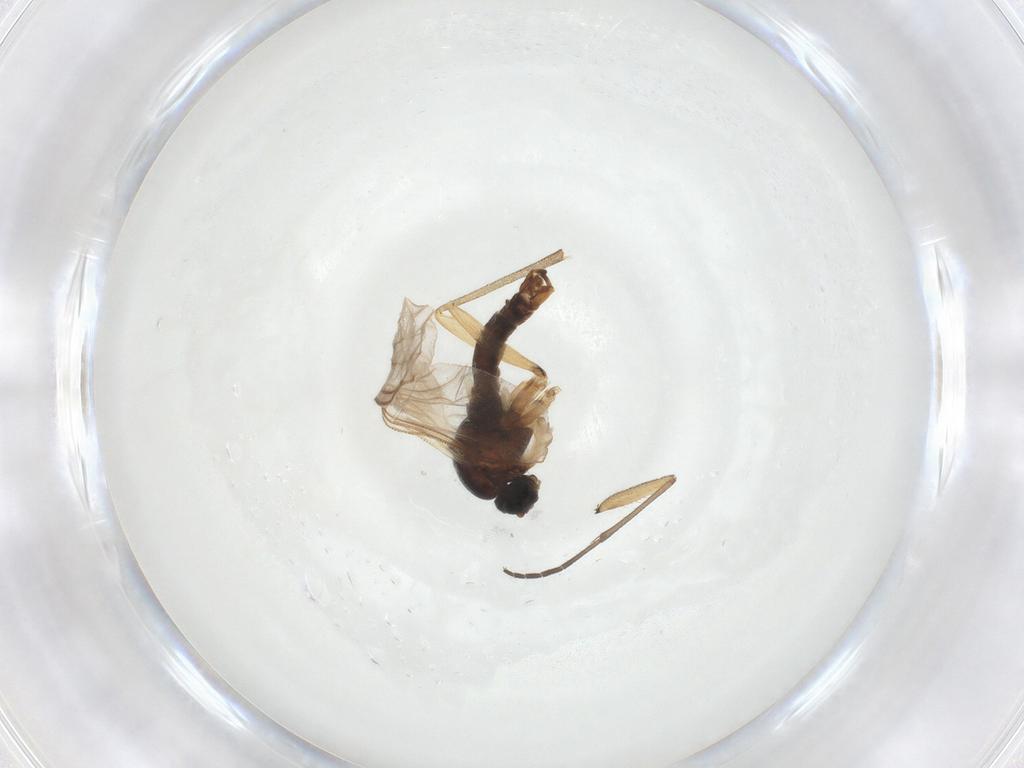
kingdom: Animalia
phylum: Arthropoda
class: Insecta
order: Diptera
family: Sciaridae
